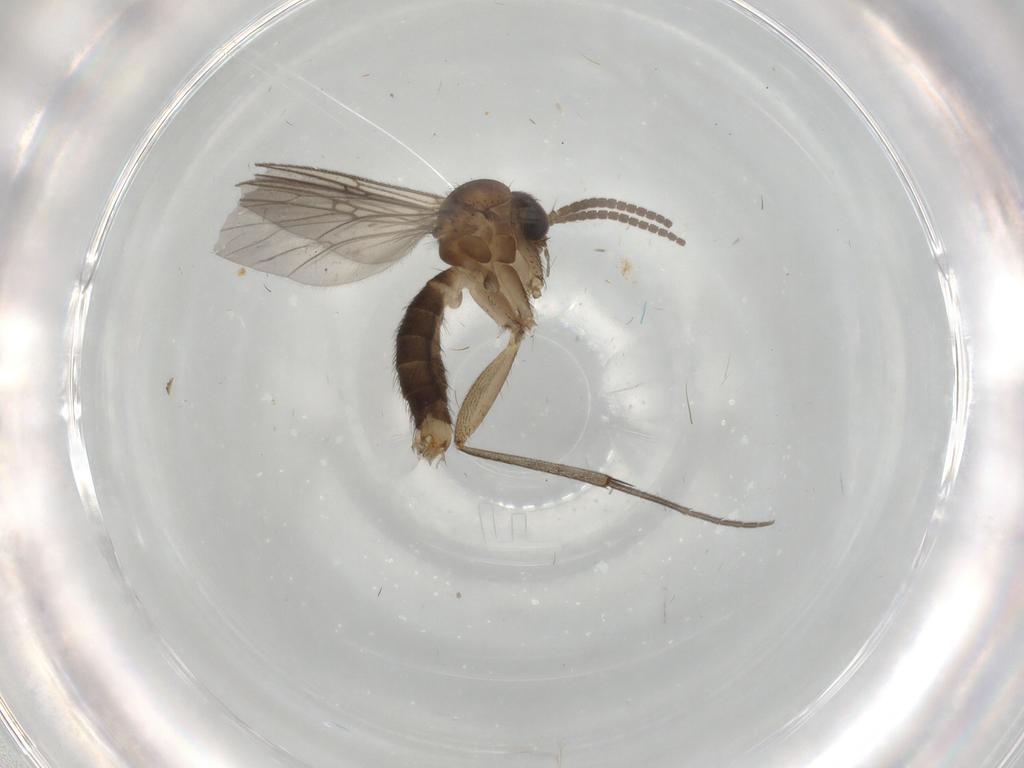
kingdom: Animalia
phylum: Arthropoda
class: Insecta
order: Diptera
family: Mycetophilidae
